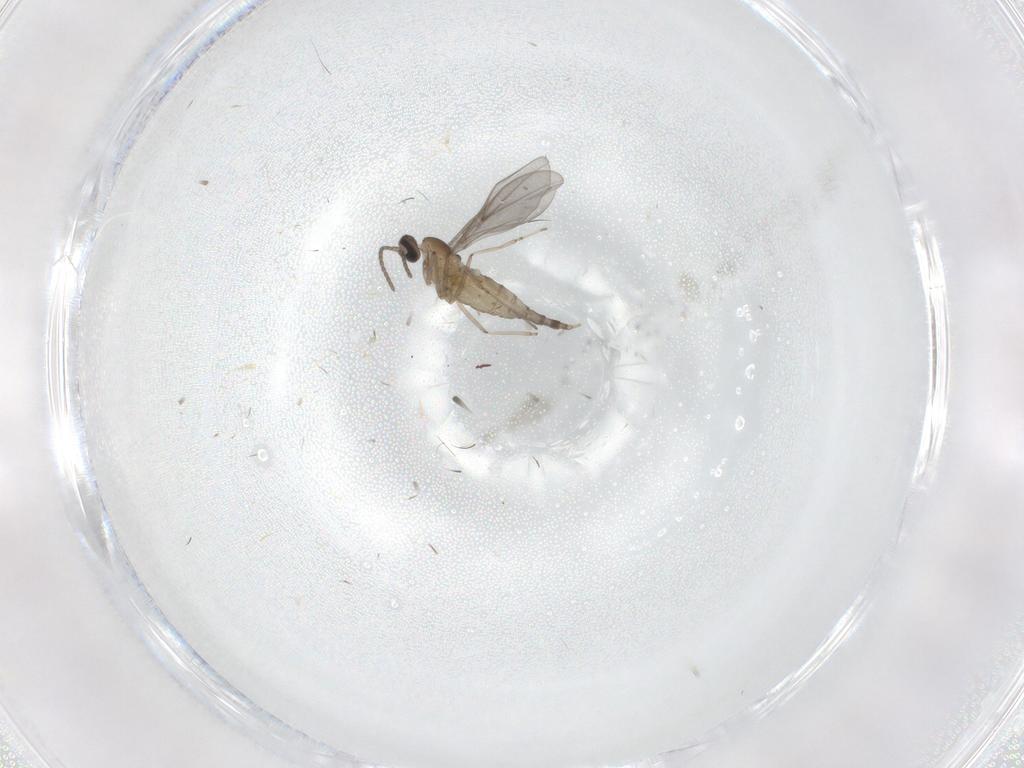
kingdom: Animalia
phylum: Arthropoda
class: Insecta
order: Diptera
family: Cecidomyiidae
